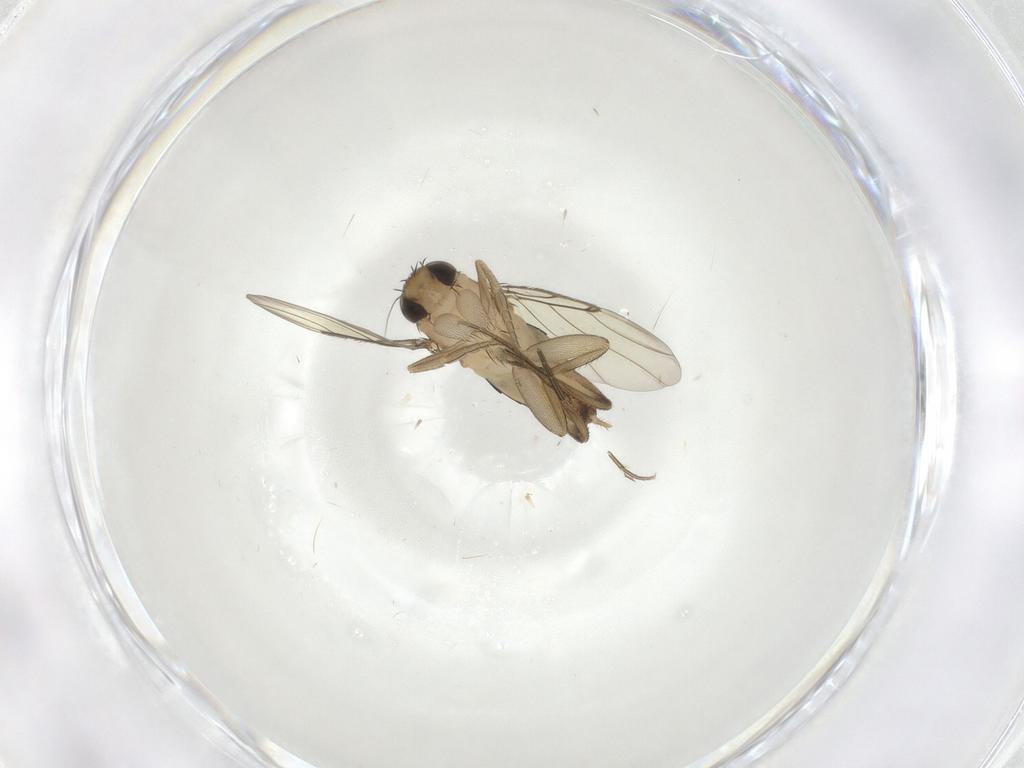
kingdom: Animalia
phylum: Arthropoda
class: Insecta
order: Diptera
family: Phoridae
